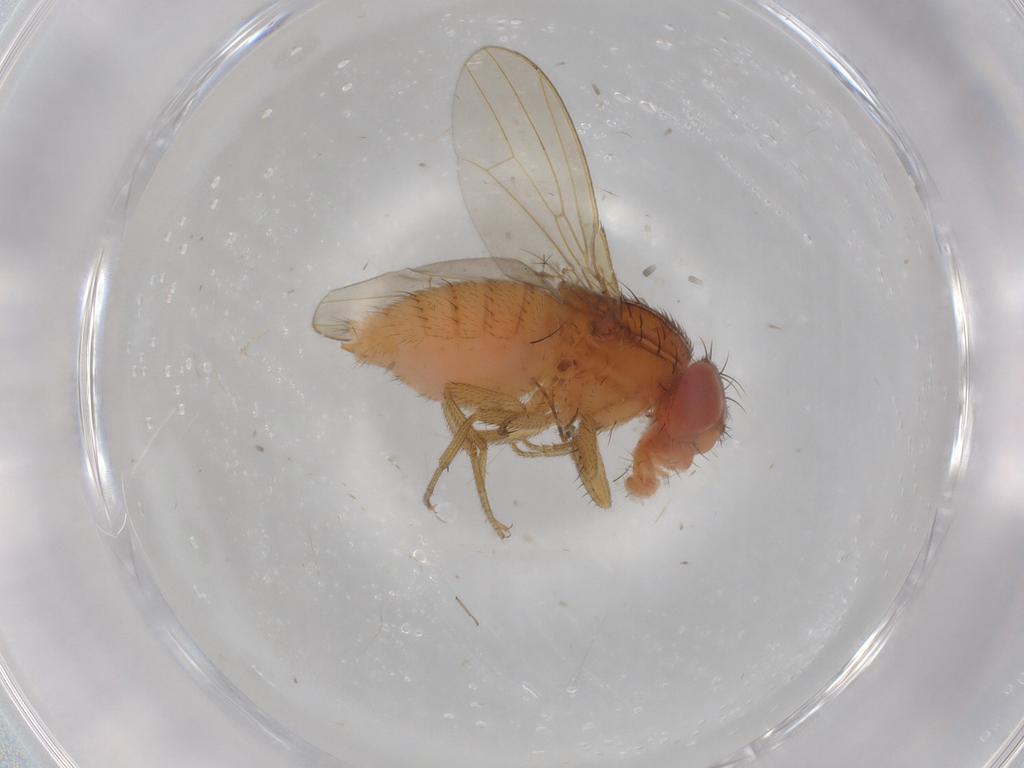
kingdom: Animalia
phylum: Arthropoda
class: Insecta
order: Diptera
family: Drosophilidae
